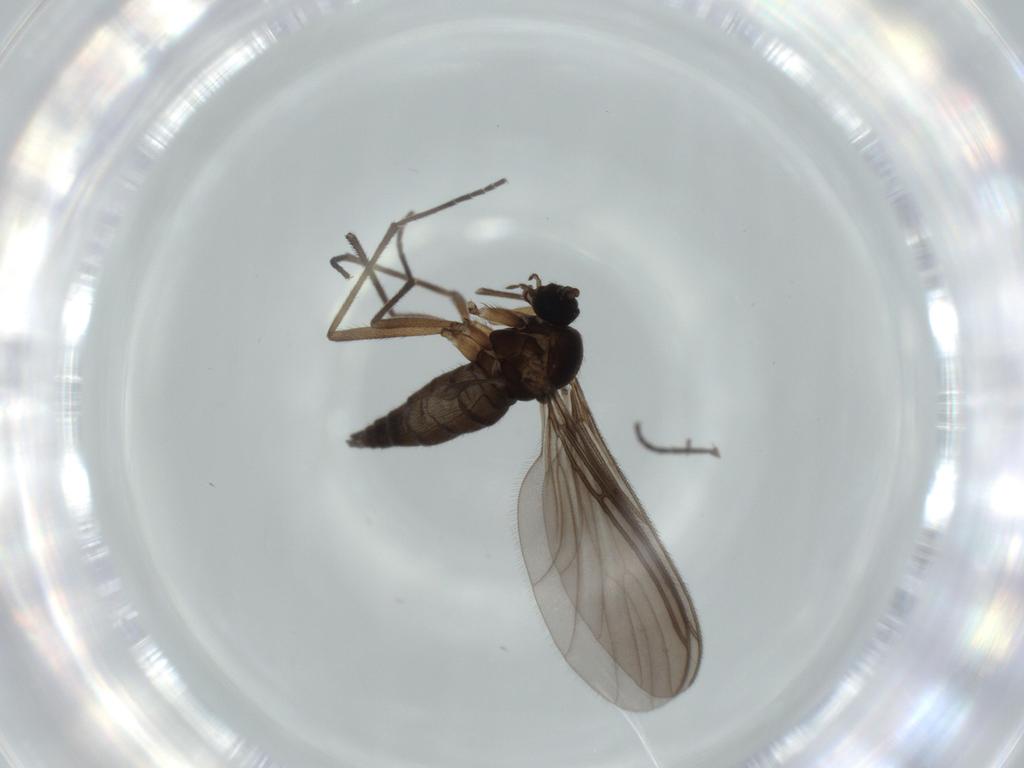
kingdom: Animalia
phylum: Arthropoda
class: Insecta
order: Diptera
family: Sciaridae
